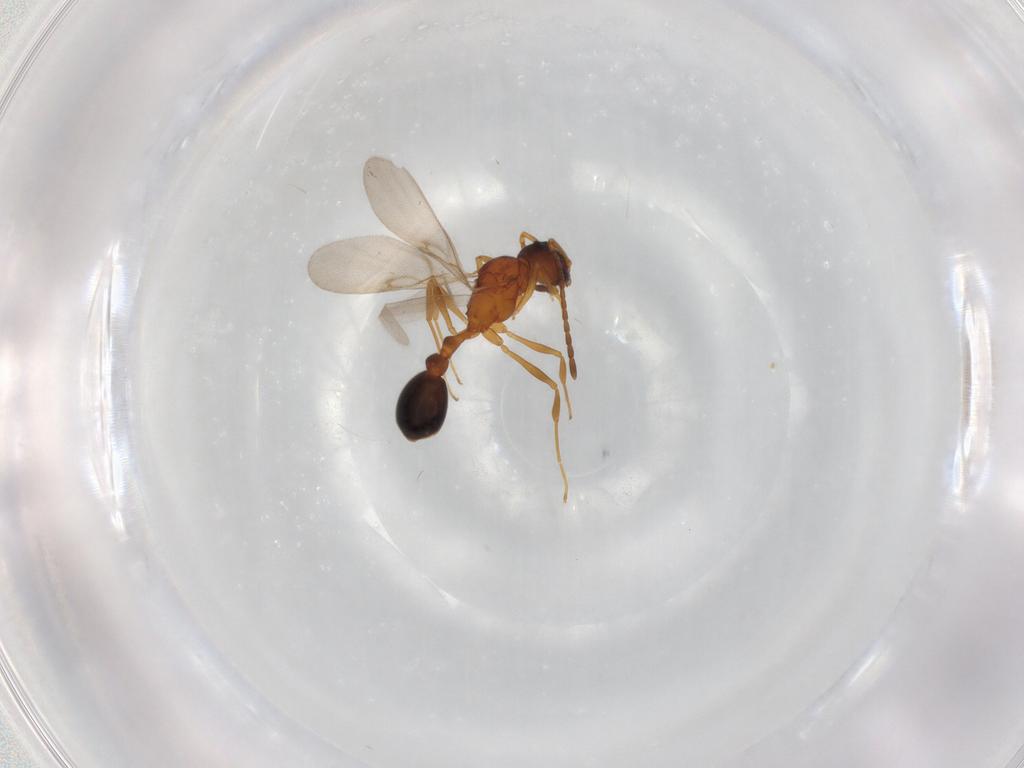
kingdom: Animalia
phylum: Arthropoda
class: Insecta
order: Hymenoptera
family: Formicidae
